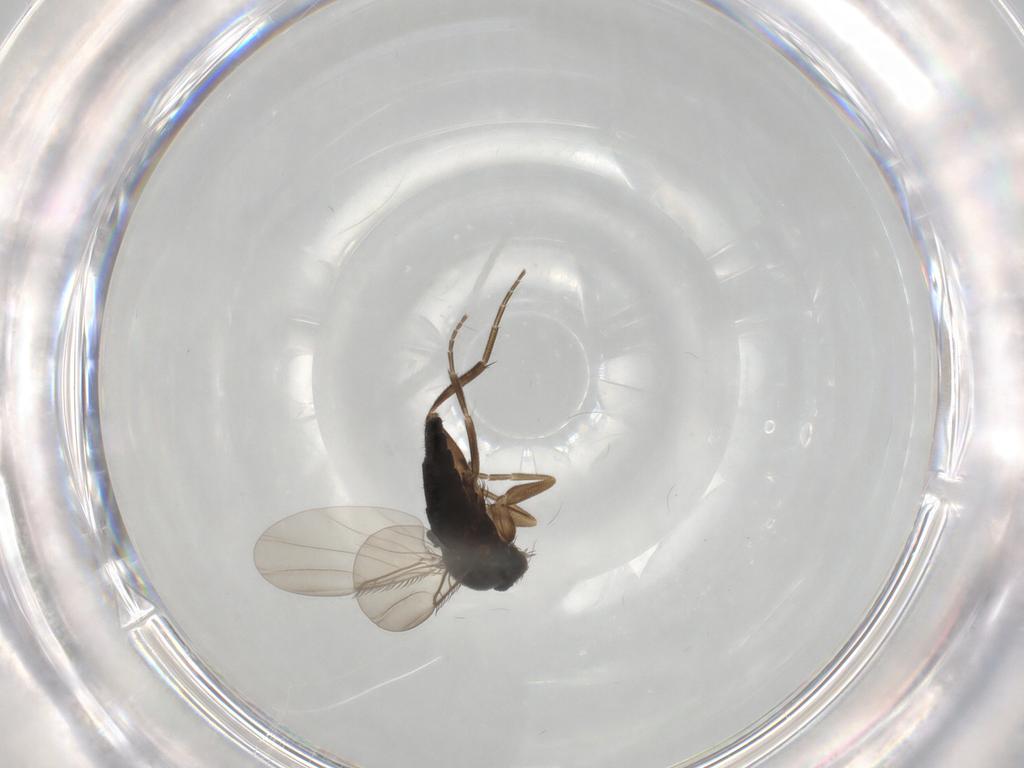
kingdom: Animalia
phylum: Arthropoda
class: Insecta
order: Diptera
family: Phoridae
